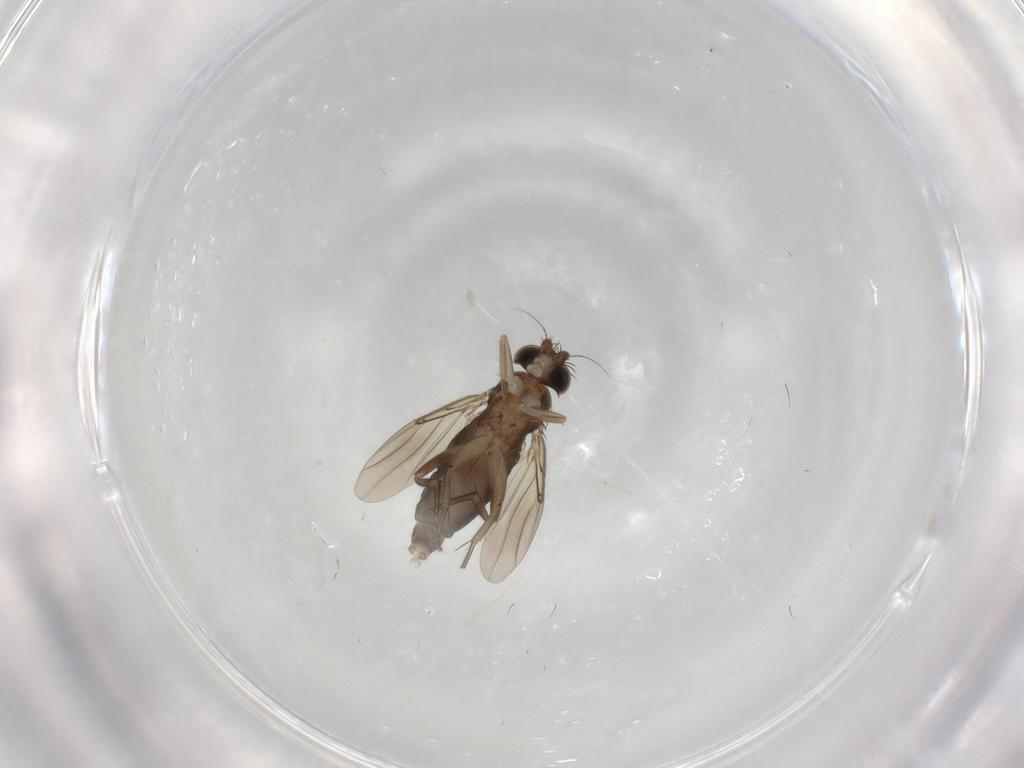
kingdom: Animalia
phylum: Arthropoda
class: Insecta
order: Diptera
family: Phoridae
